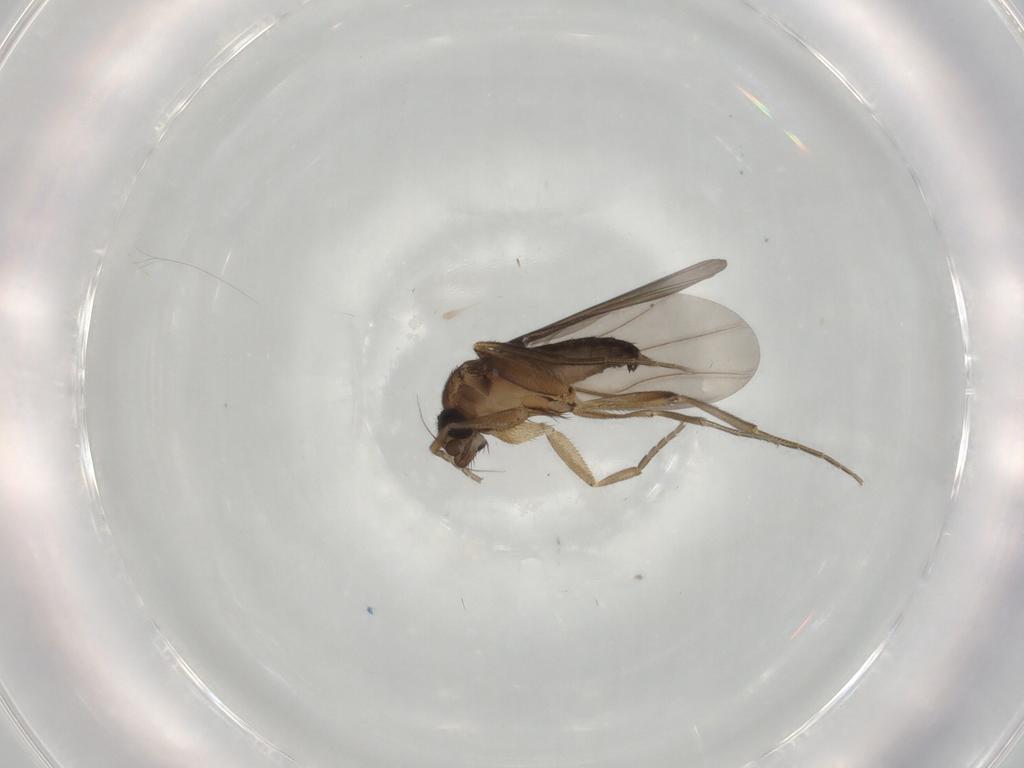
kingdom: Animalia
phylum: Arthropoda
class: Insecta
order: Diptera
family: Phoridae
